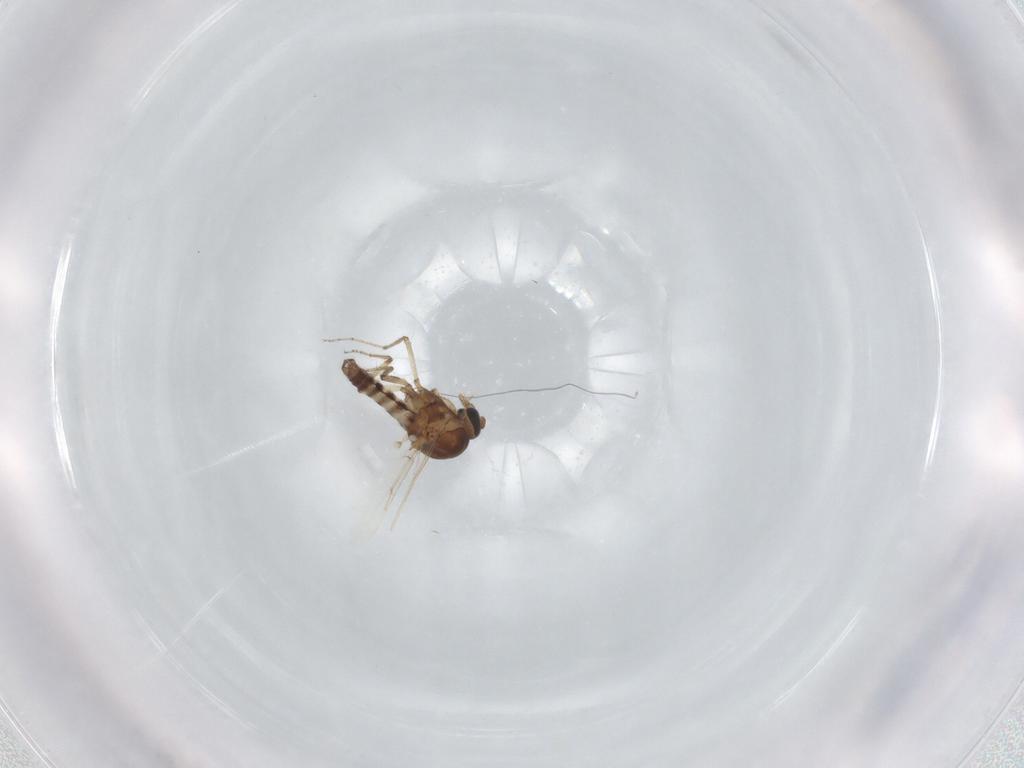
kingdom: Animalia
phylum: Arthropoda
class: Insecta
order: Diptera
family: Ceratopogonidae
